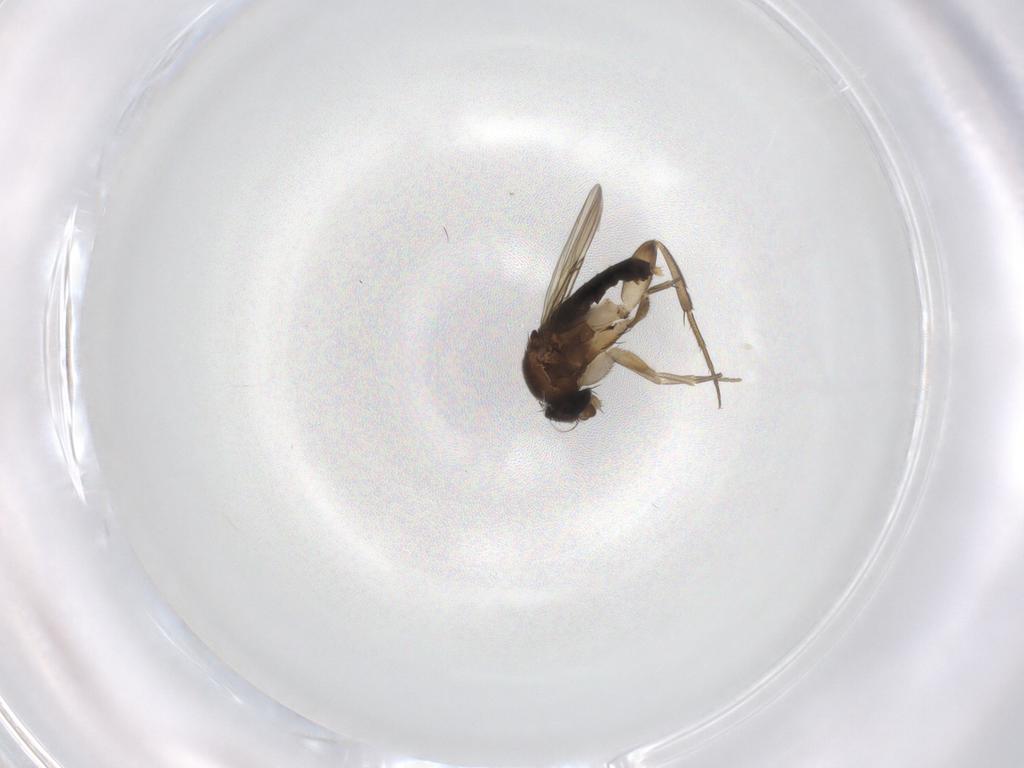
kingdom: Animalia
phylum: Arthropoda
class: Insecta
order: Diptera
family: Phoridae
